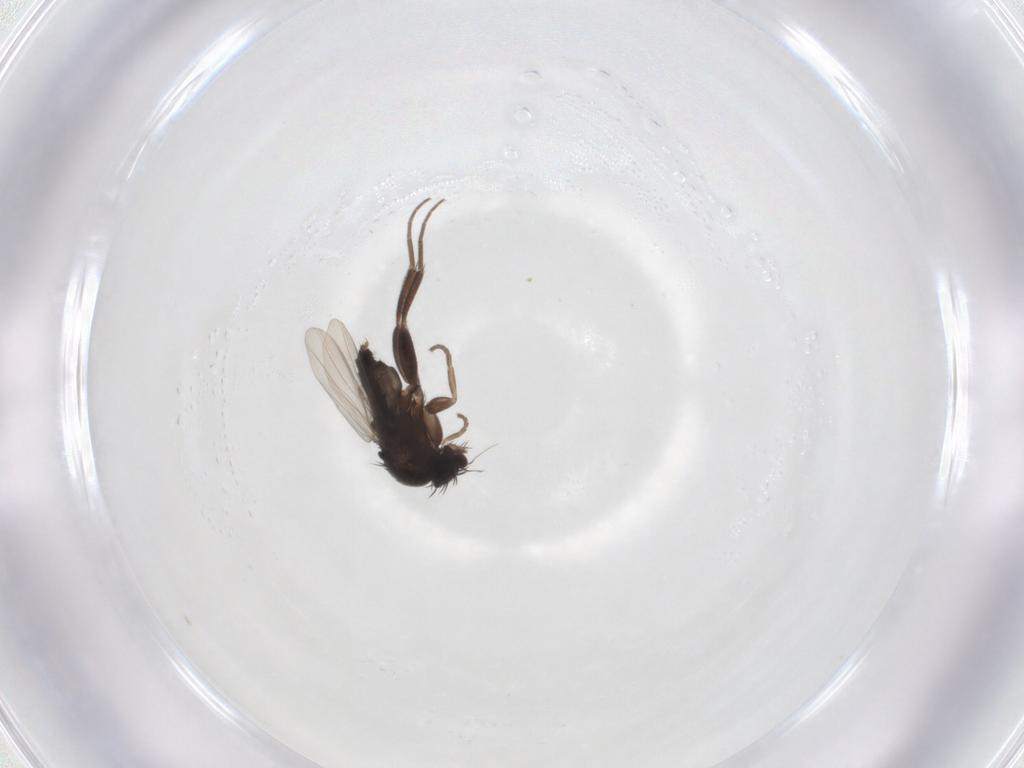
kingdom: Animalia
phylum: Arthropoda
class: Insecta
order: Diptera
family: Phoridae
